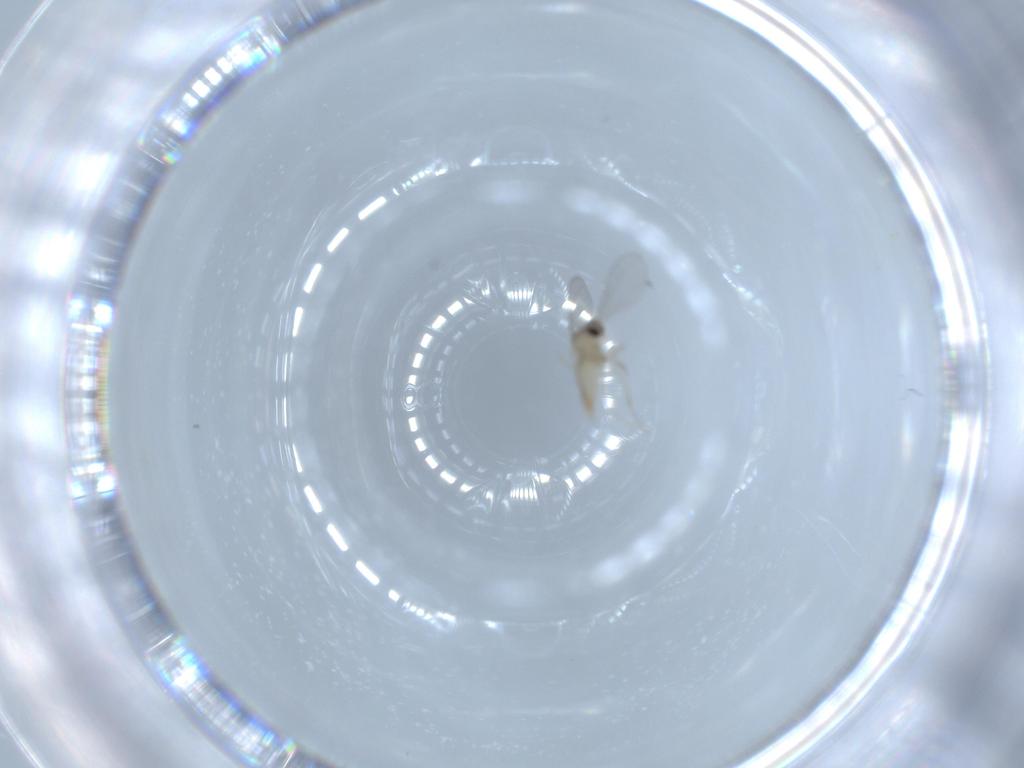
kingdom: Animalia
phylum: Arthropoda
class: Insecta
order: Diptera
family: Cecidomyiidae
